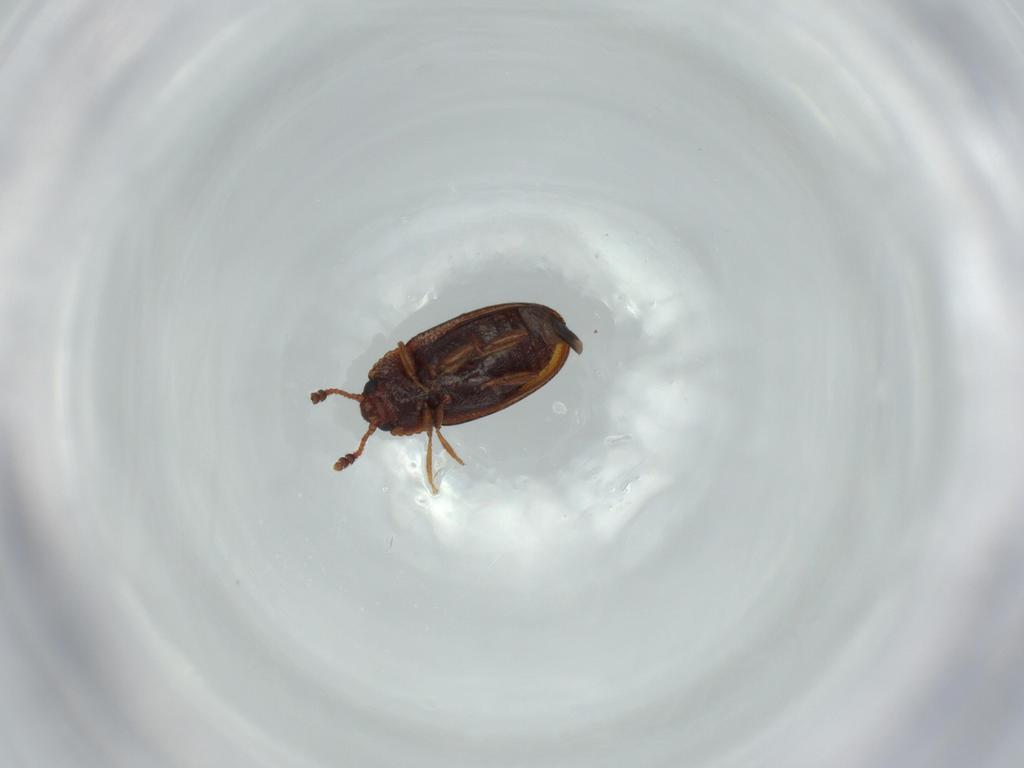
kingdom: Animalia
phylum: Arthropoda
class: Insecta
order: Coleoptera
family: Erotylidae
